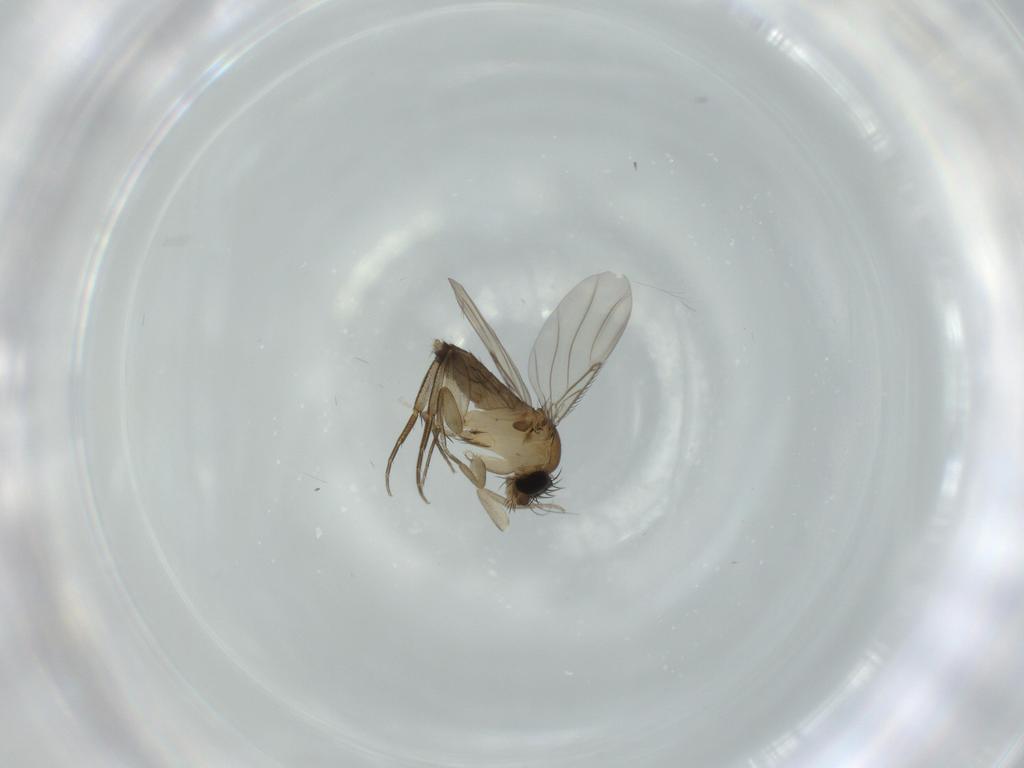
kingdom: Animalia
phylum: Arthropoda
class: Insecta
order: Diptera
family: Phoridae
